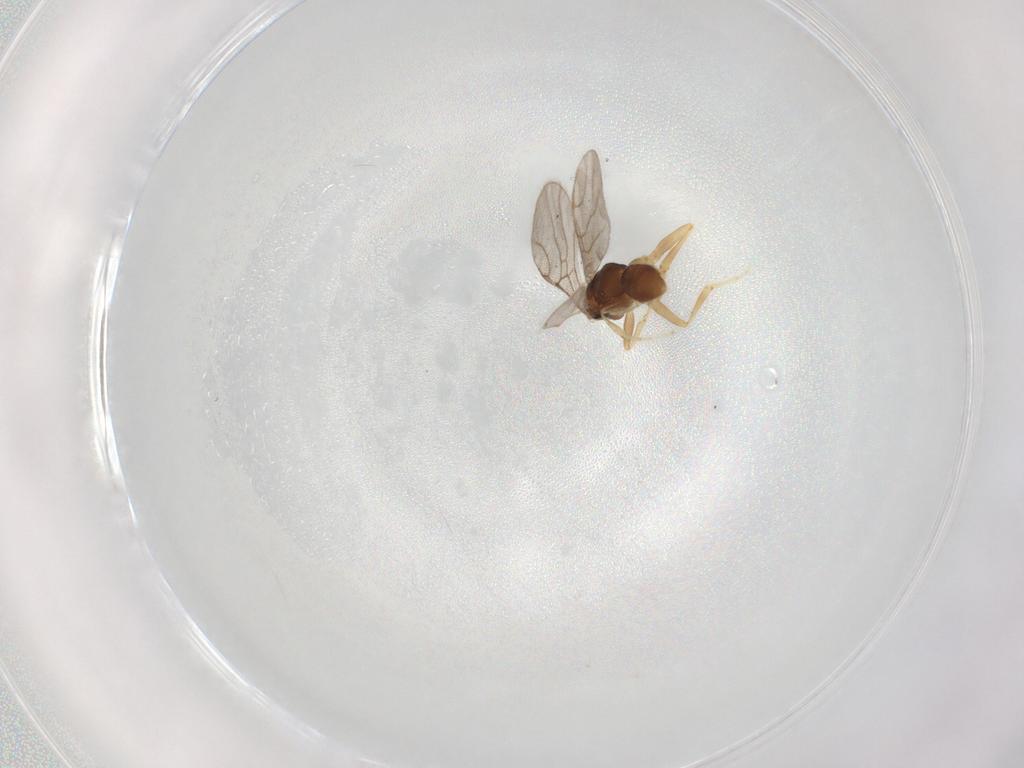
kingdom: Animalia
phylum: Arthropoda
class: Insecta
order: Hymenoptera
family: Embolemidae
